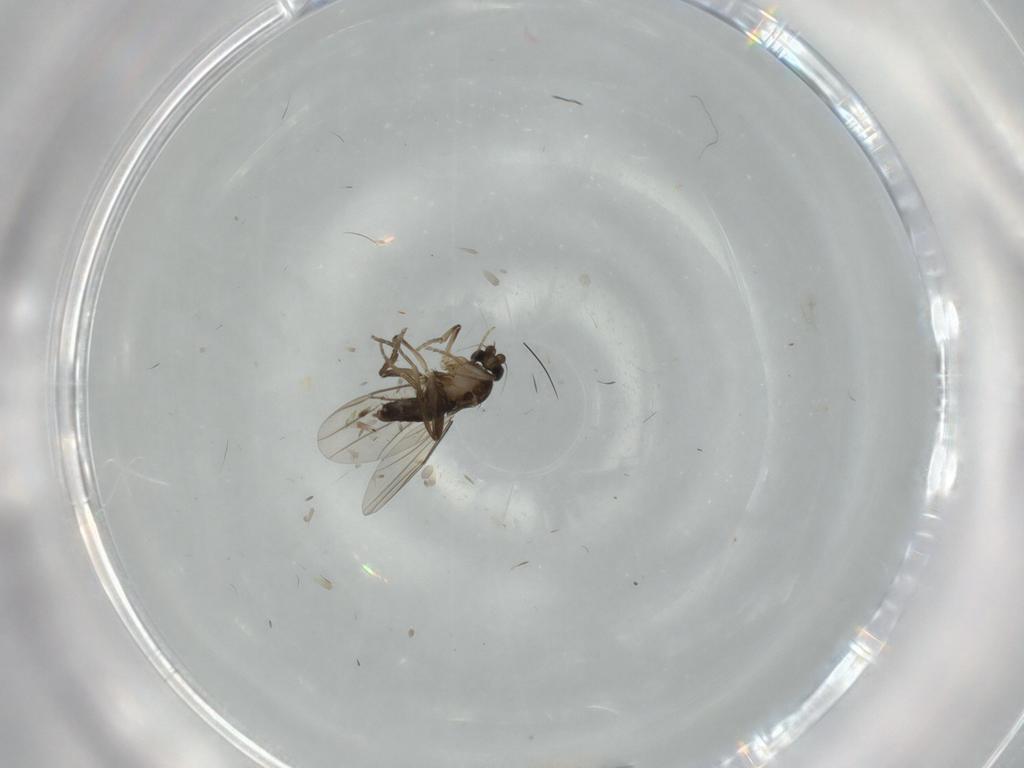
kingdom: Animalia
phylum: Arthropoda
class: Insecta
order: Diptera
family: Phoridae
